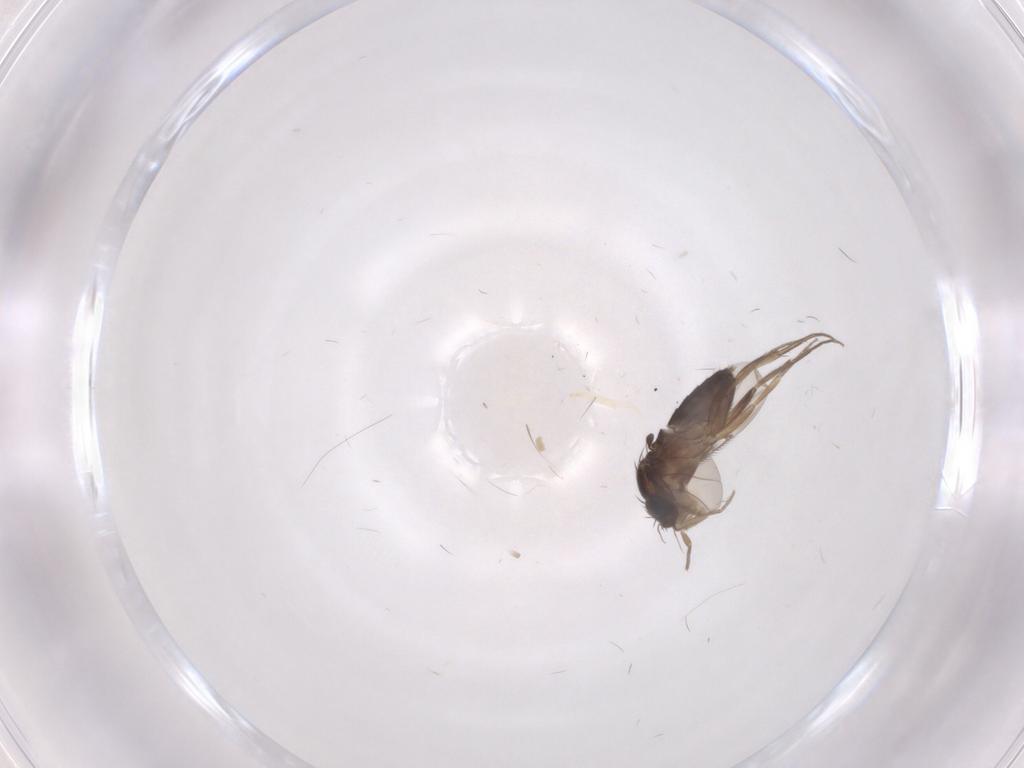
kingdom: Animalia
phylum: Arthropoda
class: Insecta
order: Diptera
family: Phoridae
